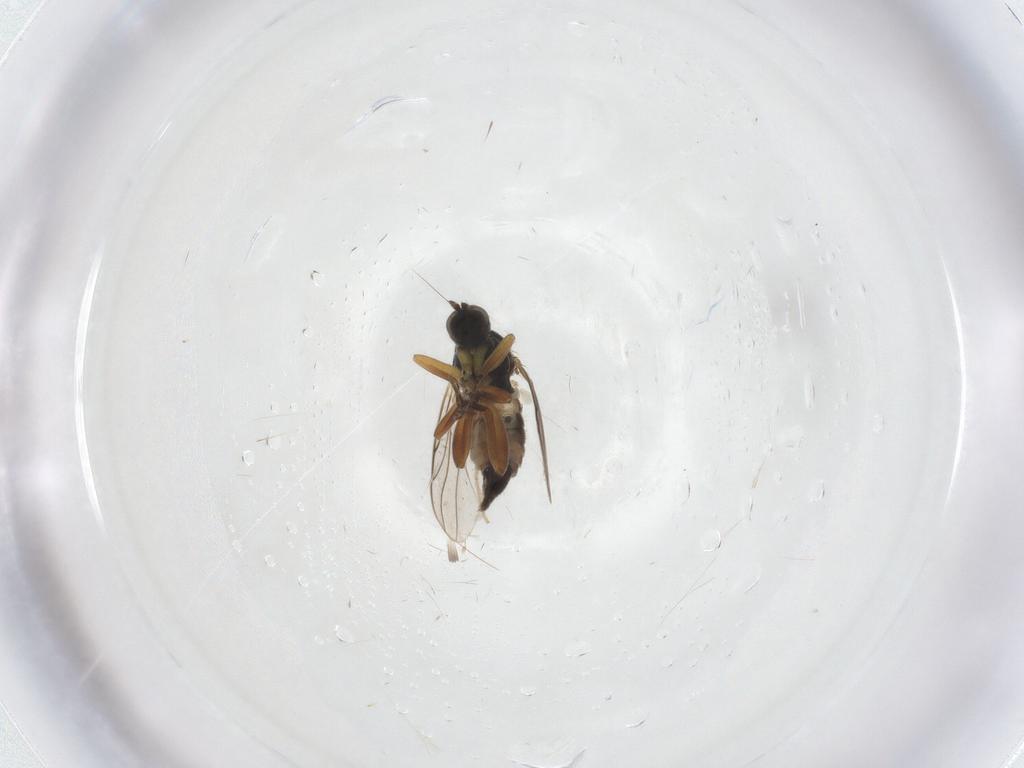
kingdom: Animalia
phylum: Arthropoda
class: Insecta
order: Diptera
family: Hybotidae
